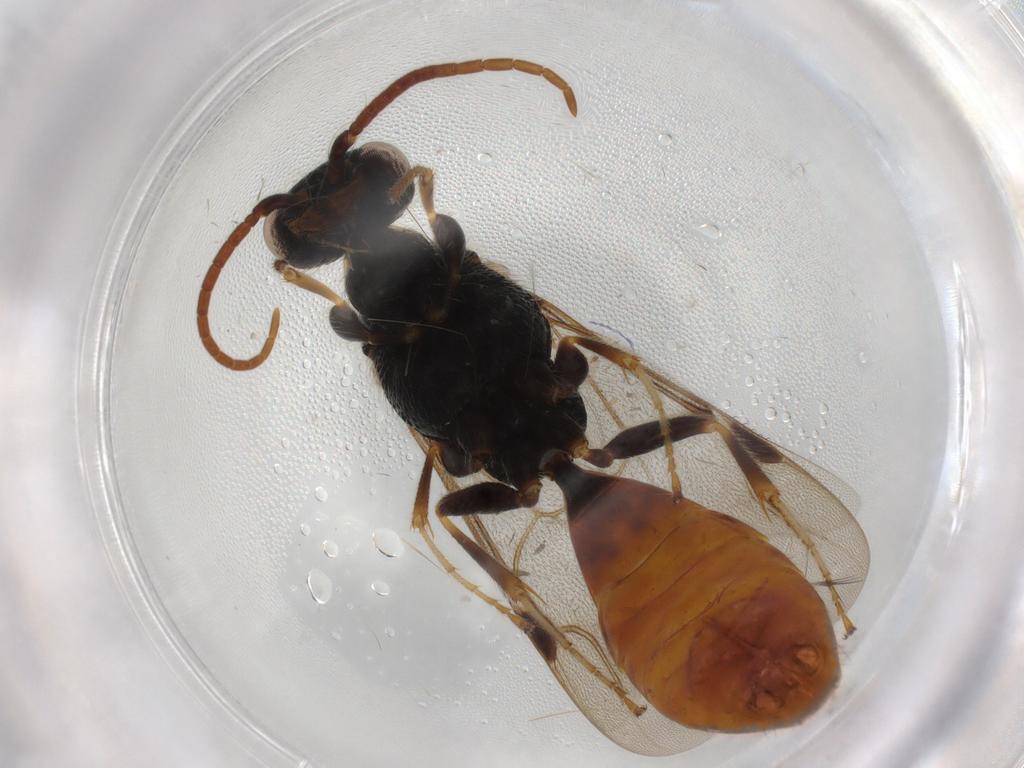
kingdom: Animalia
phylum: Arthropoda
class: Insecta
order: Hymenoptera
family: Bethylidae
